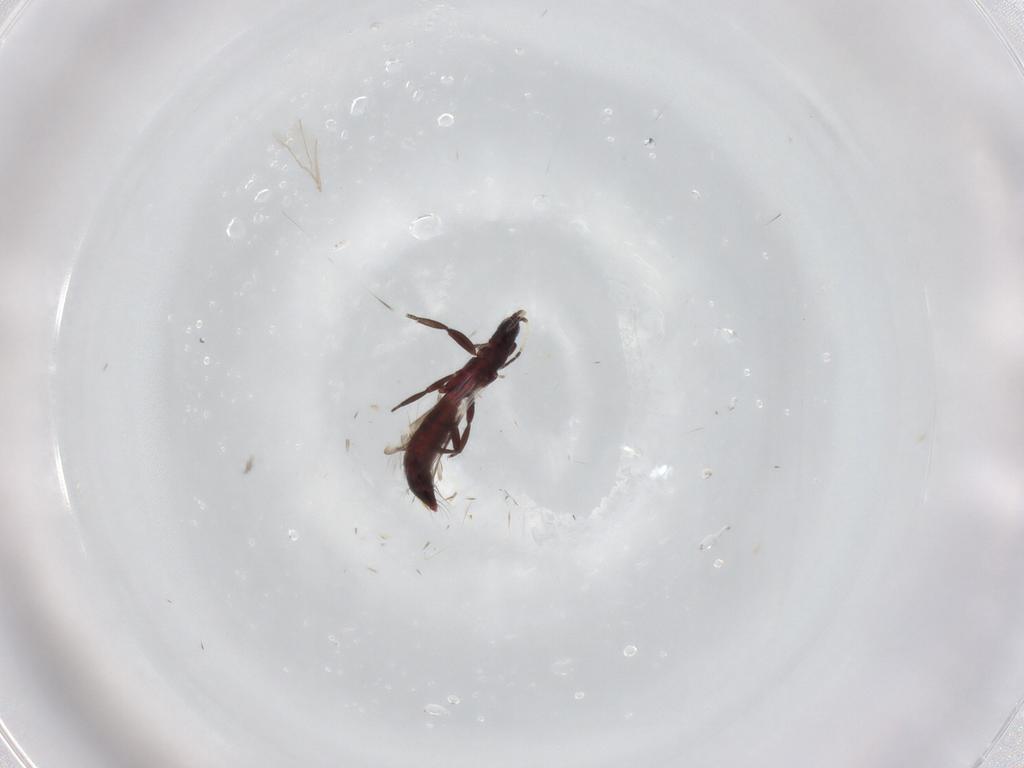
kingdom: Animalia
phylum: Arthropoda
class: Insecta
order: Thysanoptera
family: Aeolothripidae
